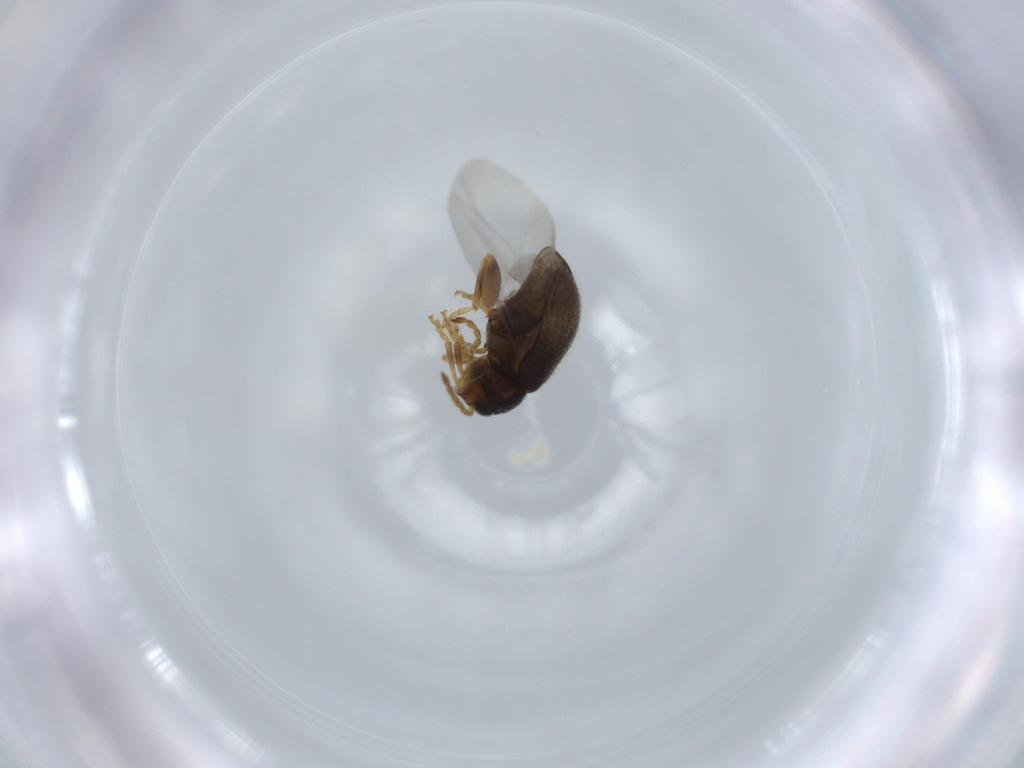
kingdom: Animalia
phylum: Arthropoda
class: Insecta
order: Coleoptera
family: Chrysomelidae
